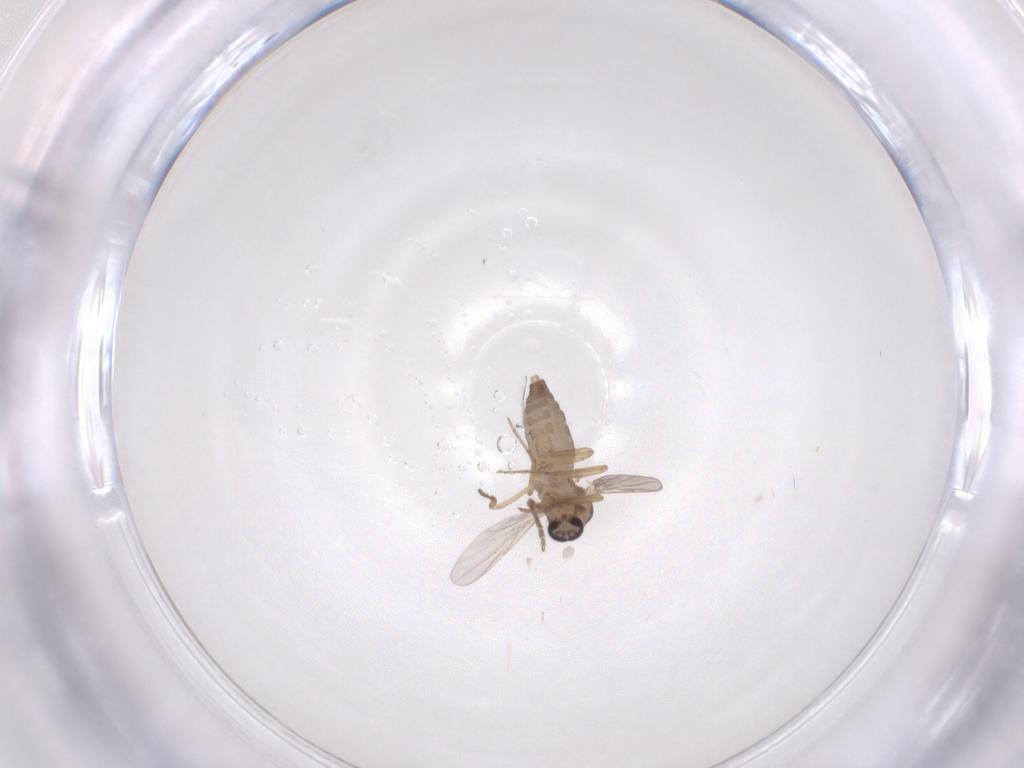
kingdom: Animalia
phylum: Arthropoda
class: Insecta
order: Diptera
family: Ceratopogonidae
